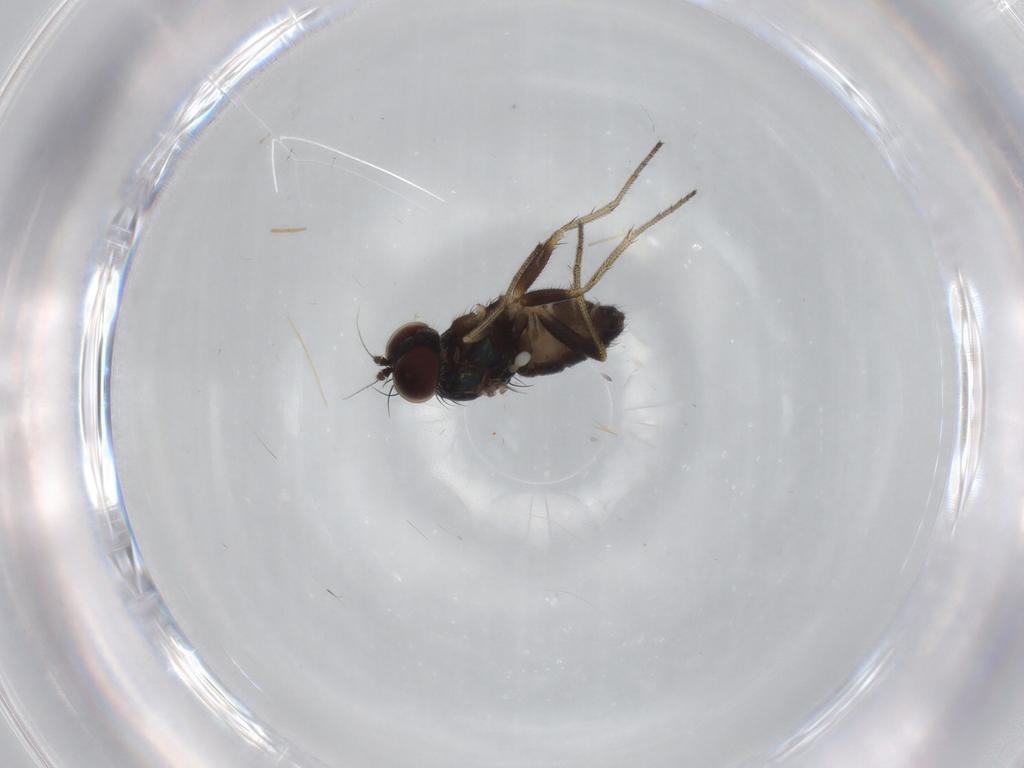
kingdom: Animalia
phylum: Arthropoda
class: Insecta
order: Diptera
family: Dolichopodidae
